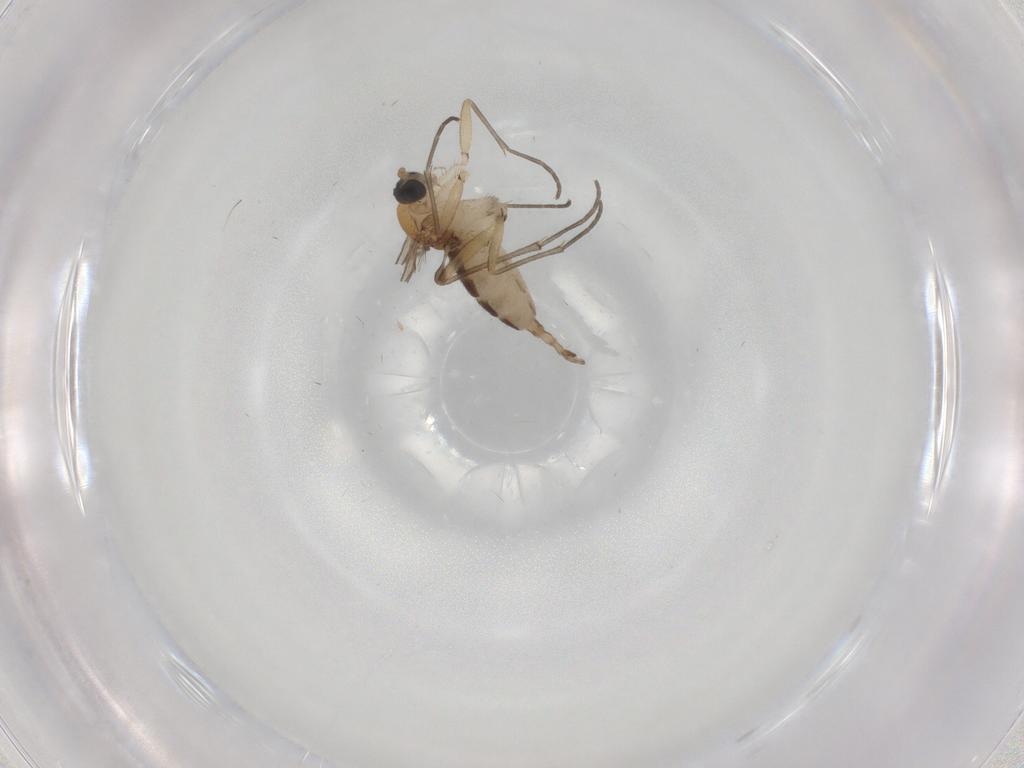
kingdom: Animalia
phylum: Arthropoda
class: Insecta
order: Diptera
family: Sciaridae
